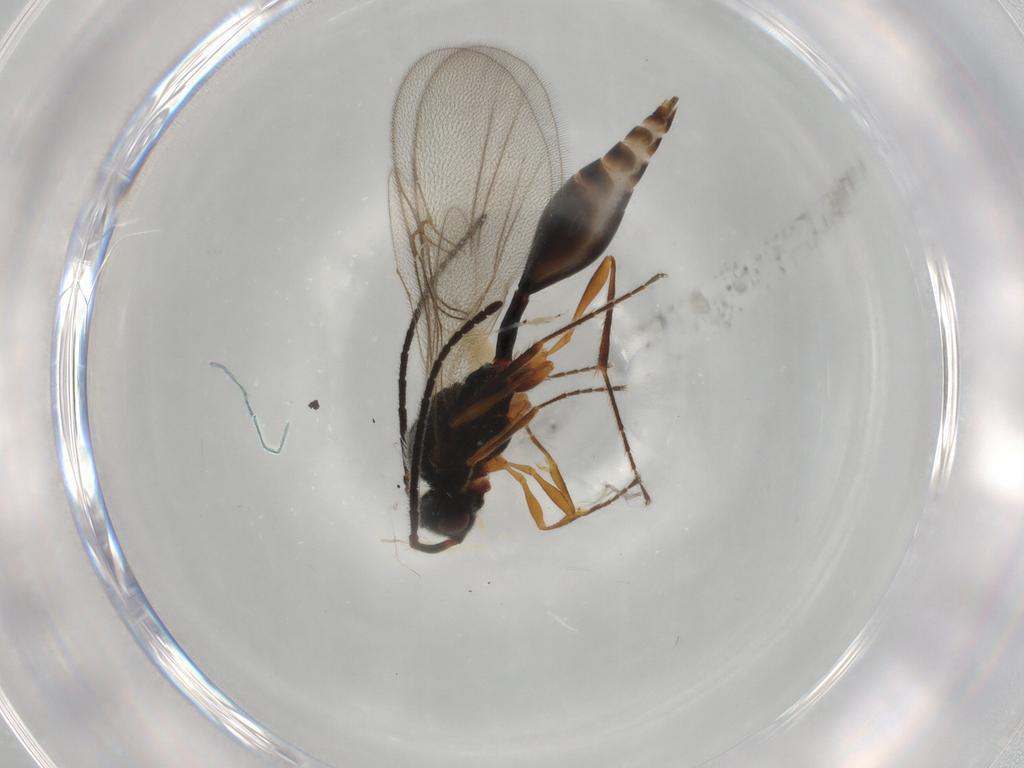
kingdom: Animalia
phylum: Arthropoda
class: Insecta
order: Hymenoptera
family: Diapriidae
